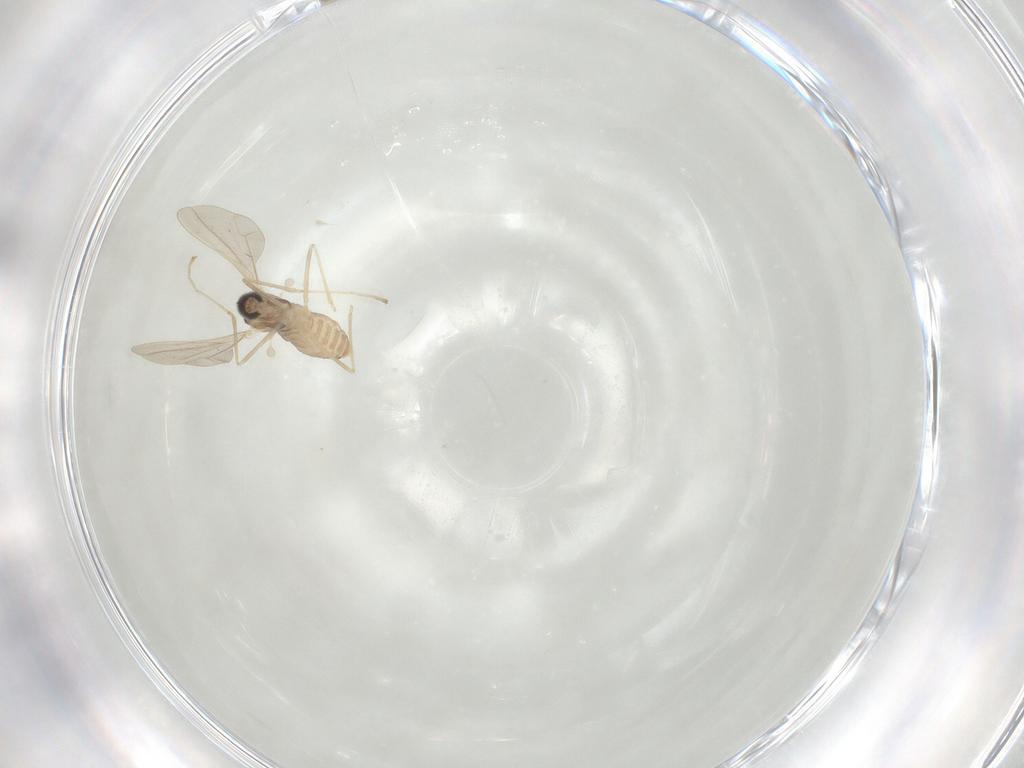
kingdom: Animalia
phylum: Arthropoda
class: Insecta
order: Diptera
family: Cecidomyiidae
